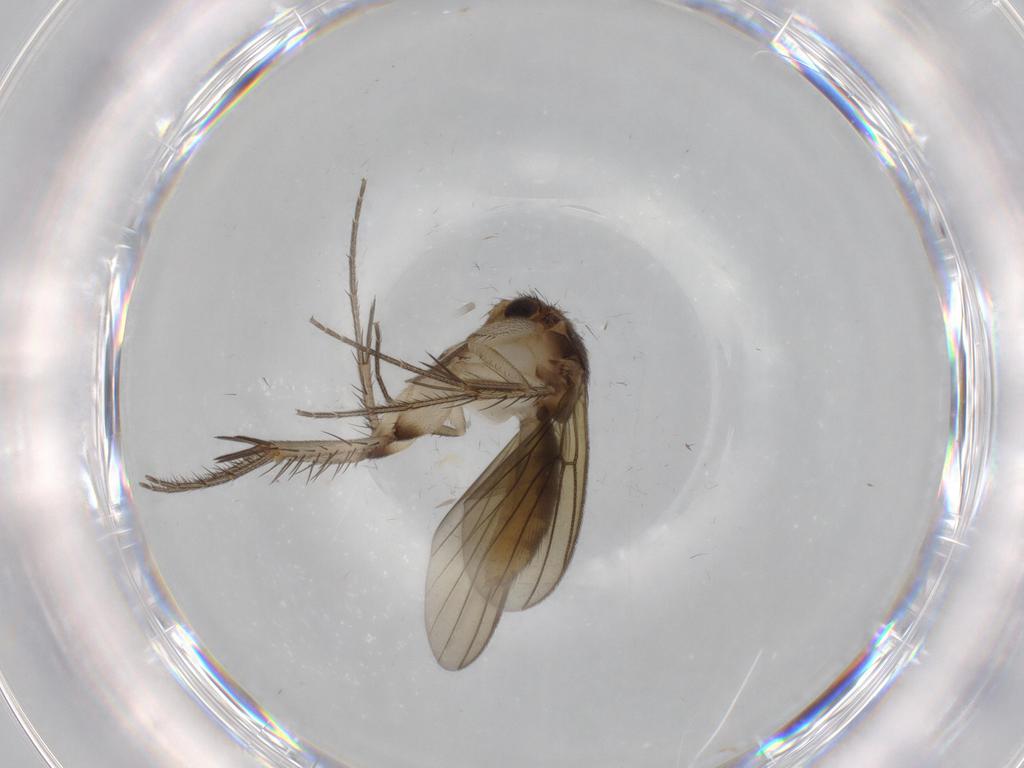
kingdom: Animalia
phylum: Arthropoda
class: Insecta
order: Diptera
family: Mycetophilidae
